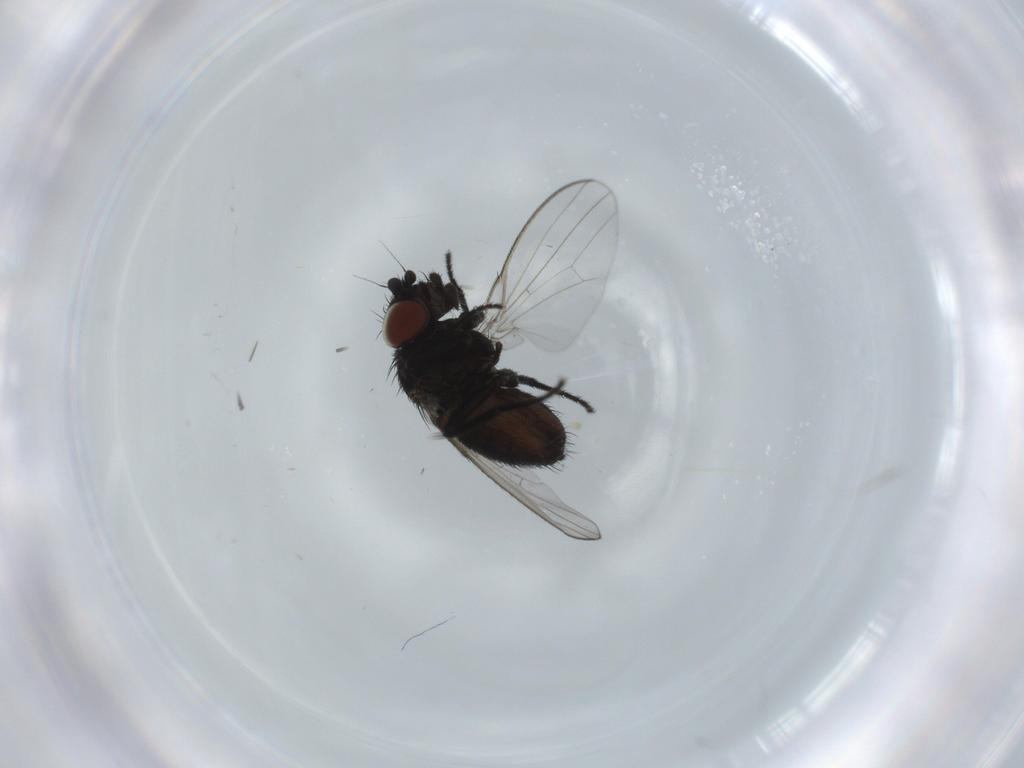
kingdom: Animalia
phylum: Arthropoda
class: Insecta
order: Diptera
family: Milichiidae
